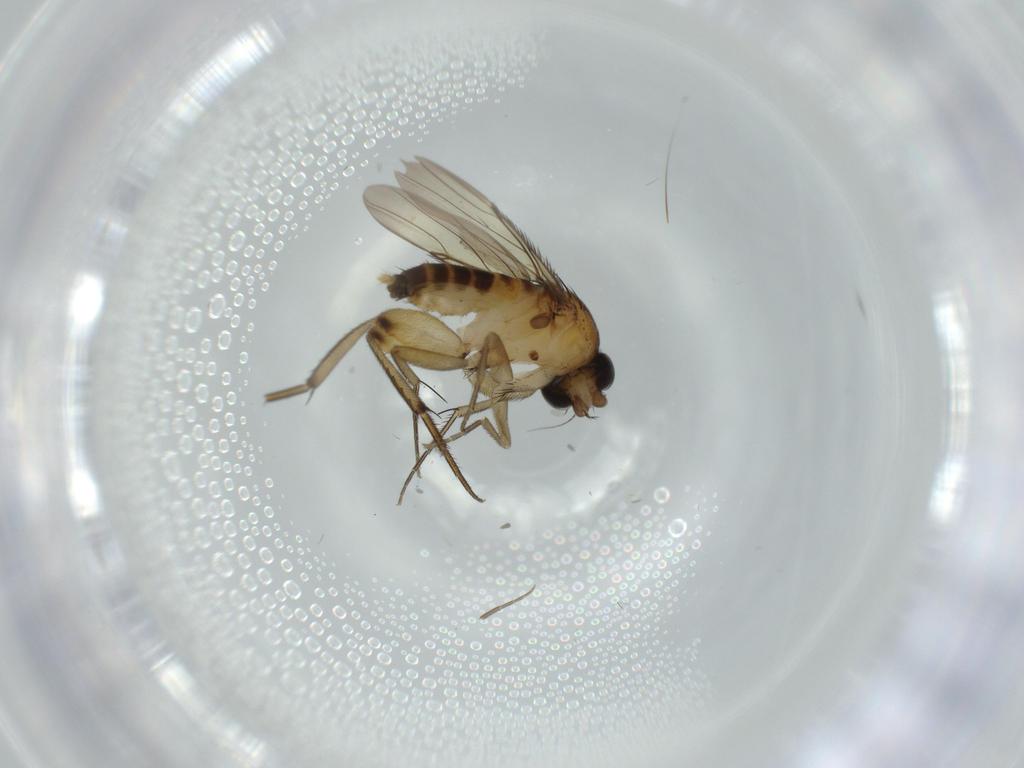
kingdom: Animalia
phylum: Arthropoda
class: Insecta
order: Diptera
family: Phoridae
